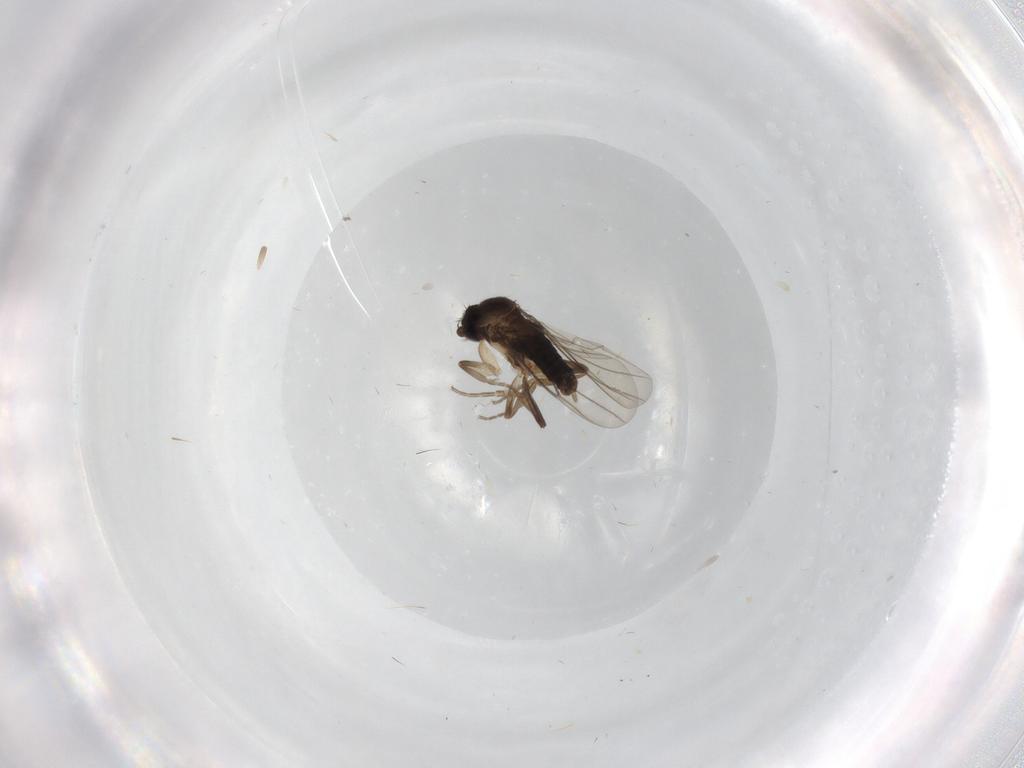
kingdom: Animalia
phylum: Arthropoda
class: Insecta
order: Diptera
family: Phoridae
